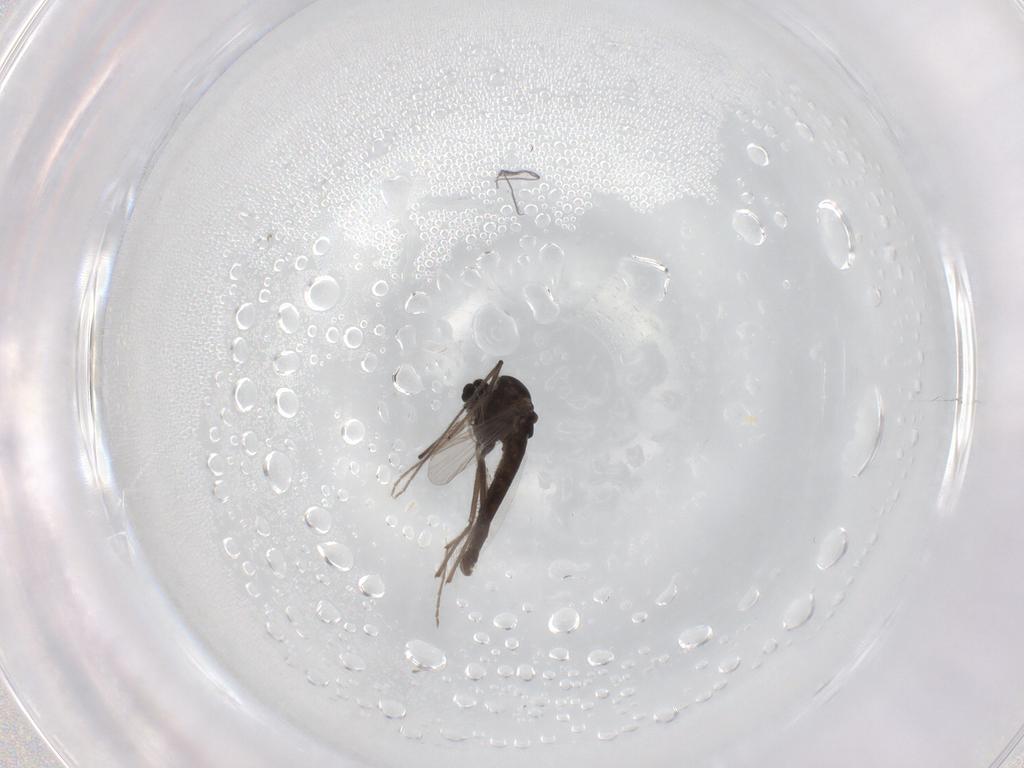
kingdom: Animalia
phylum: Arthropoda
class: Insecta
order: Diptera
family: Chironomidae
